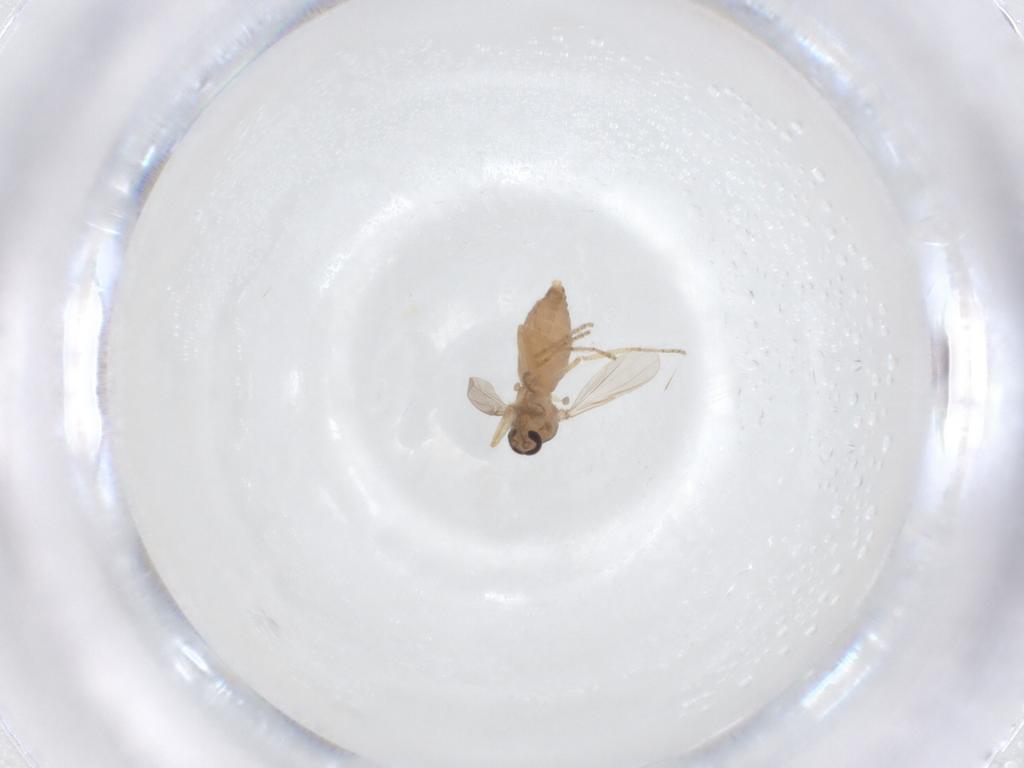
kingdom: Animalia
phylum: Arthropoda
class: Insecta
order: Diptera
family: Ceratopogonidae
